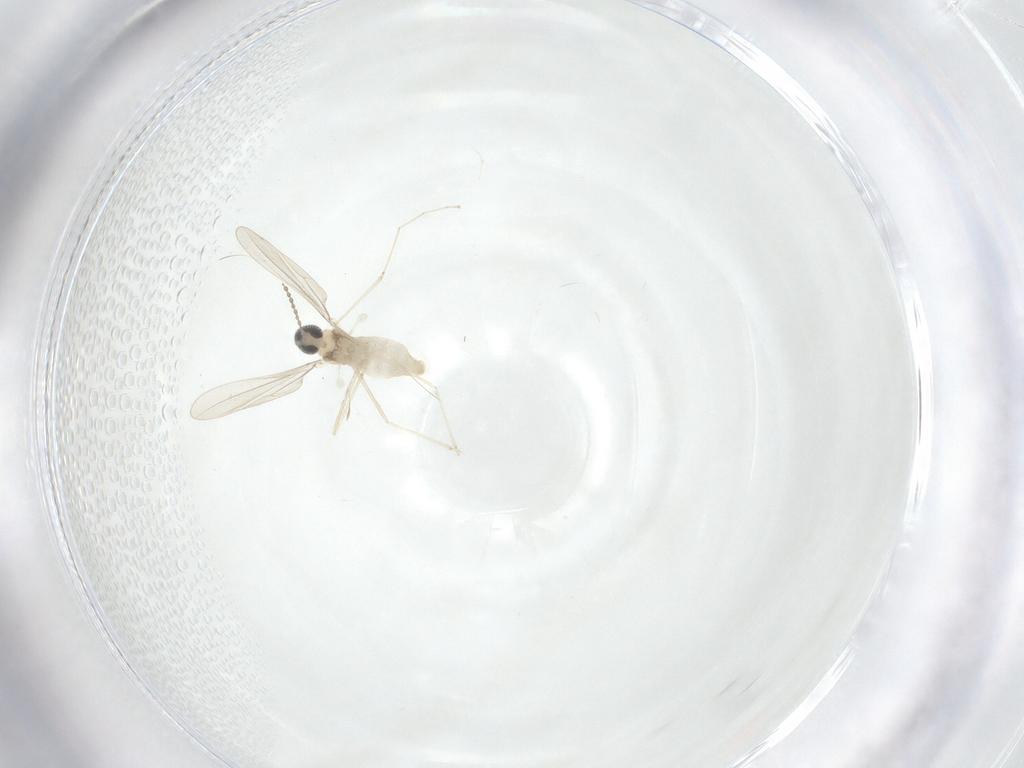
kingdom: Animalia
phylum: Arthropoda
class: Insecta
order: Diptera
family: Cecidomyiidae
